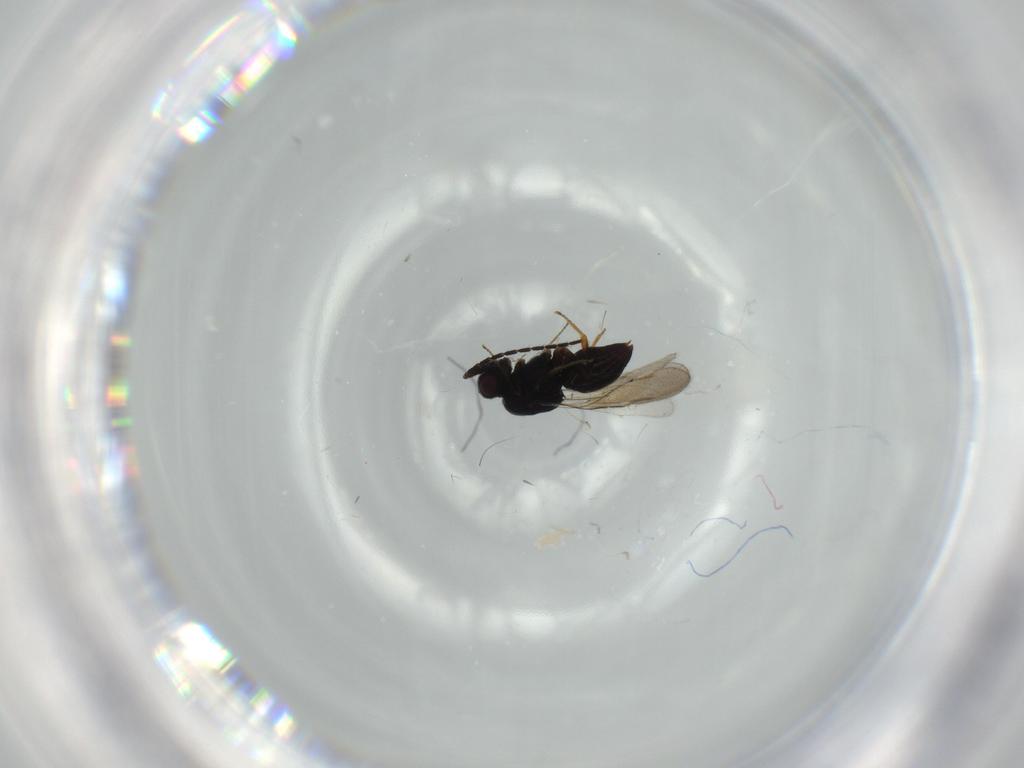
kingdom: Animalia
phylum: Arthropoda
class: Insecta
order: Hymenoptera
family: Braconidae
